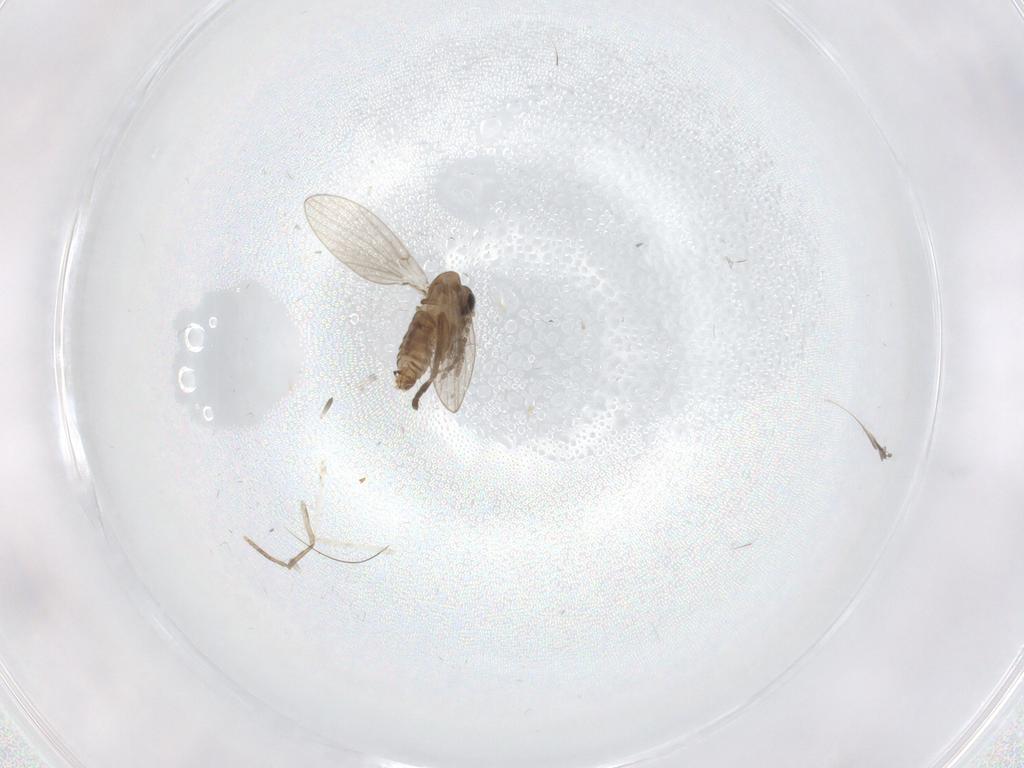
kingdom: Animalia
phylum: Arthropoda
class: Insecta
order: Diptera
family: Cecidomyiidae
